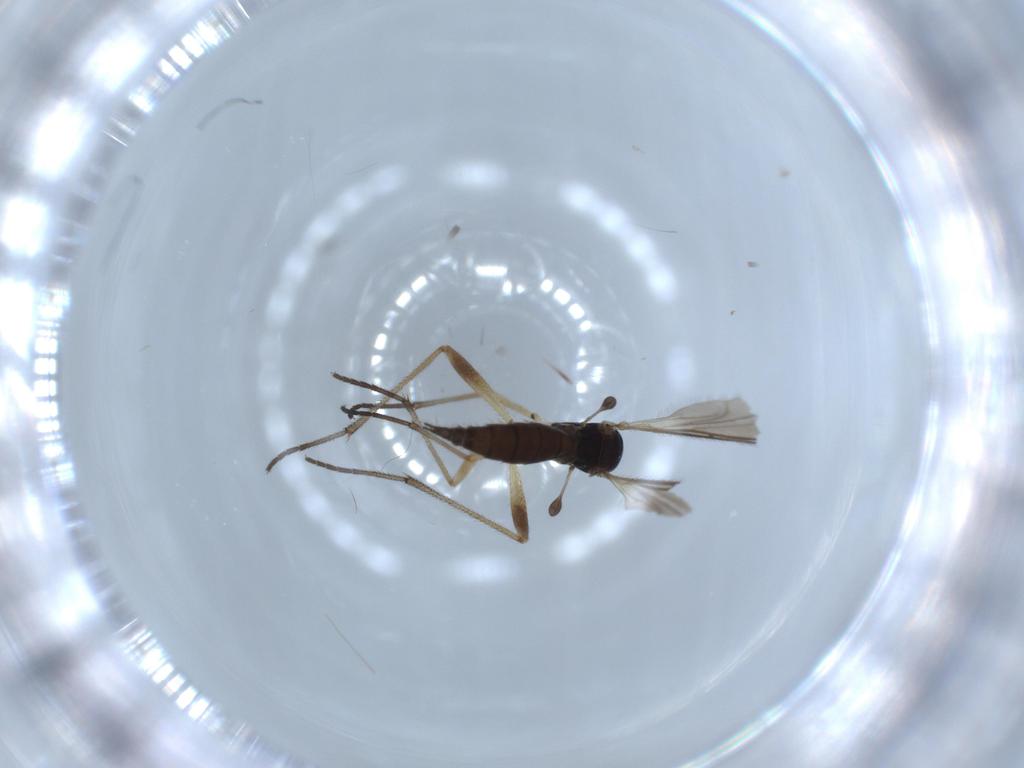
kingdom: Animalia
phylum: Arthropoda
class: Insecta
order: Diptera
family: Sciaridae
